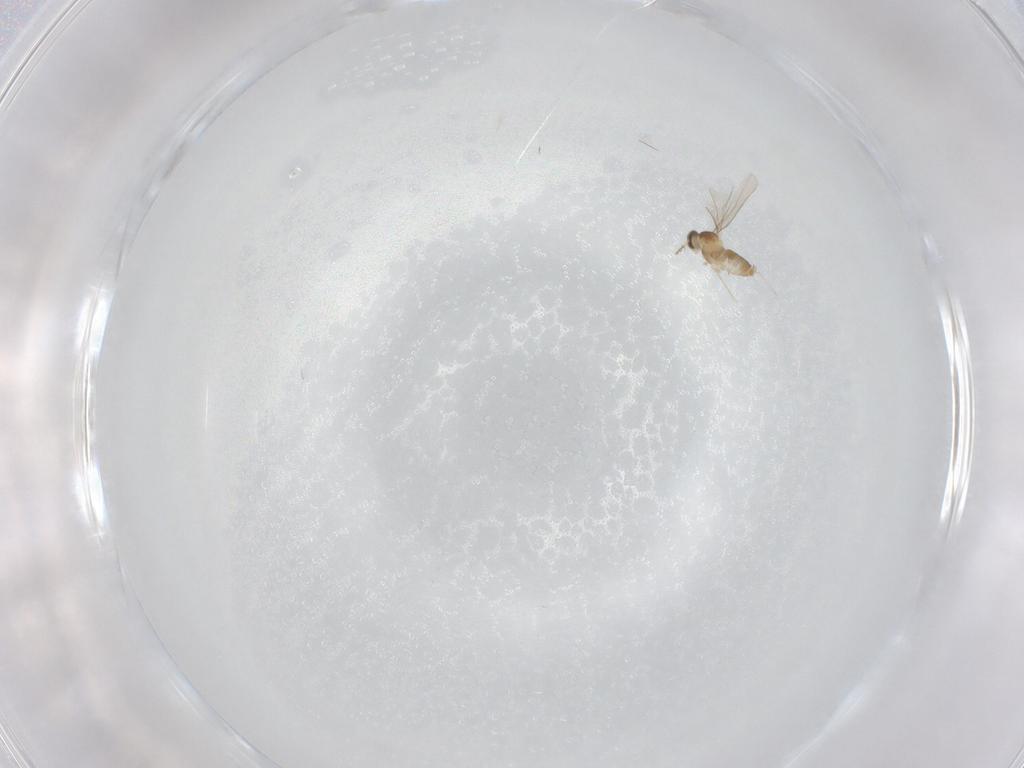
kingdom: Animalia
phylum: Arthropoda
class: Insecta
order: Diptera
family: Cecidomyiidae
